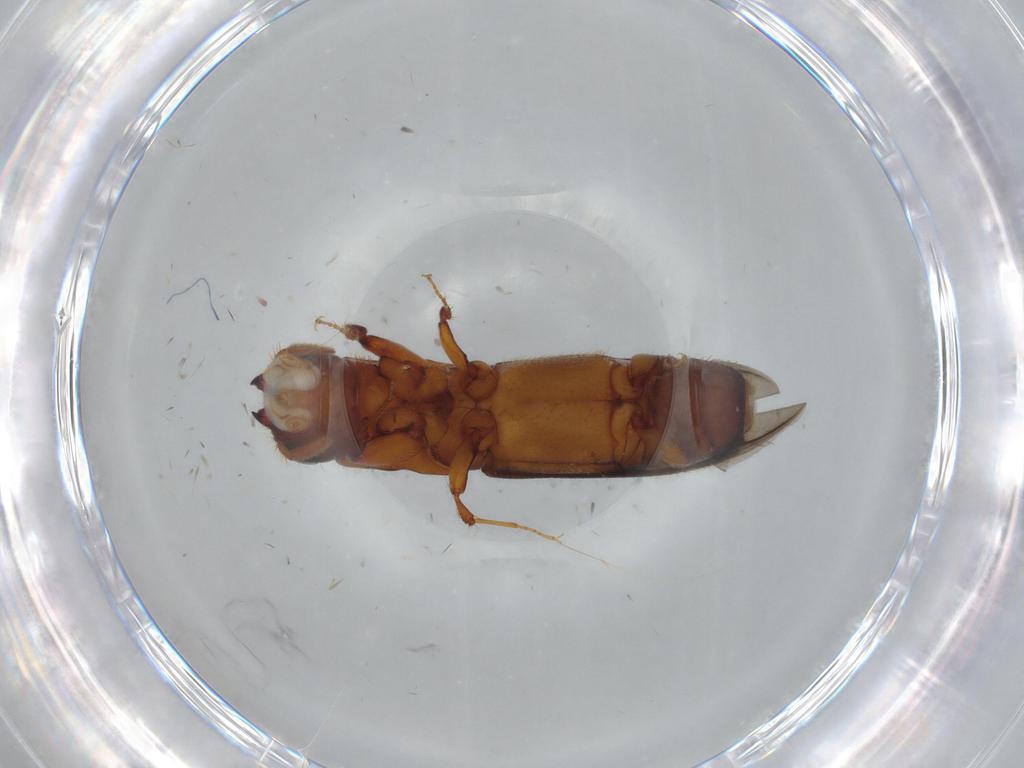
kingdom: Animalia
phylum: Arthropoda
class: Insecta
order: Coleoptera
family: Curculionidae
